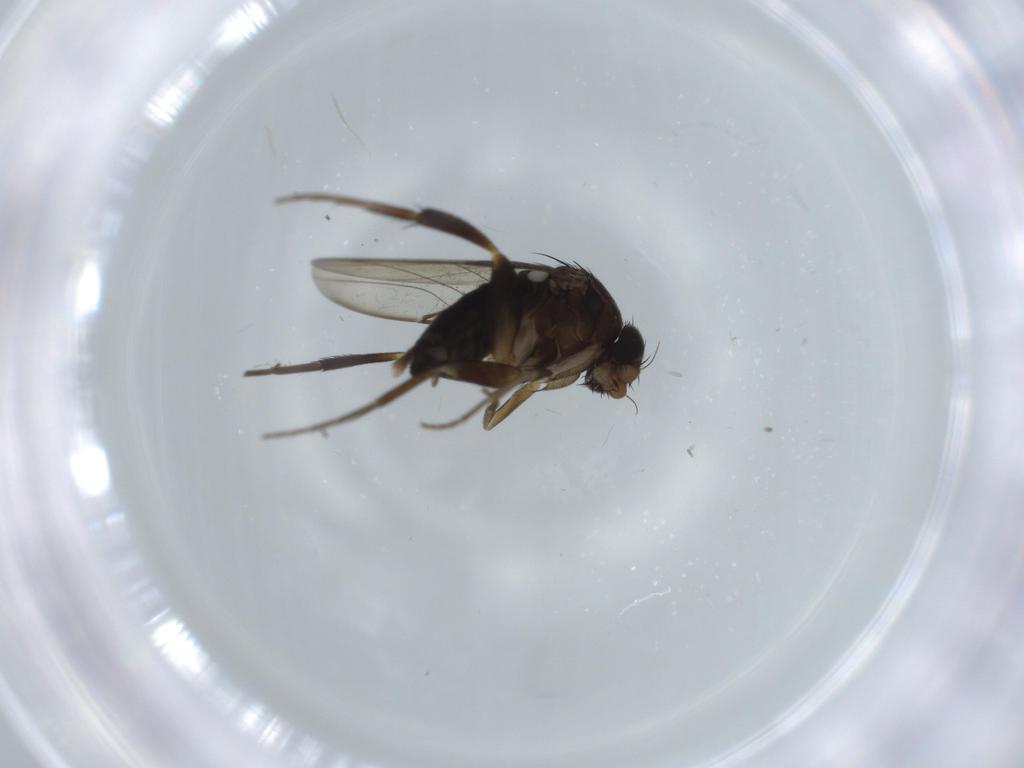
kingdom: Animalia
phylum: Arthropoda
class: Insecta
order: Diptera
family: Phoridae
